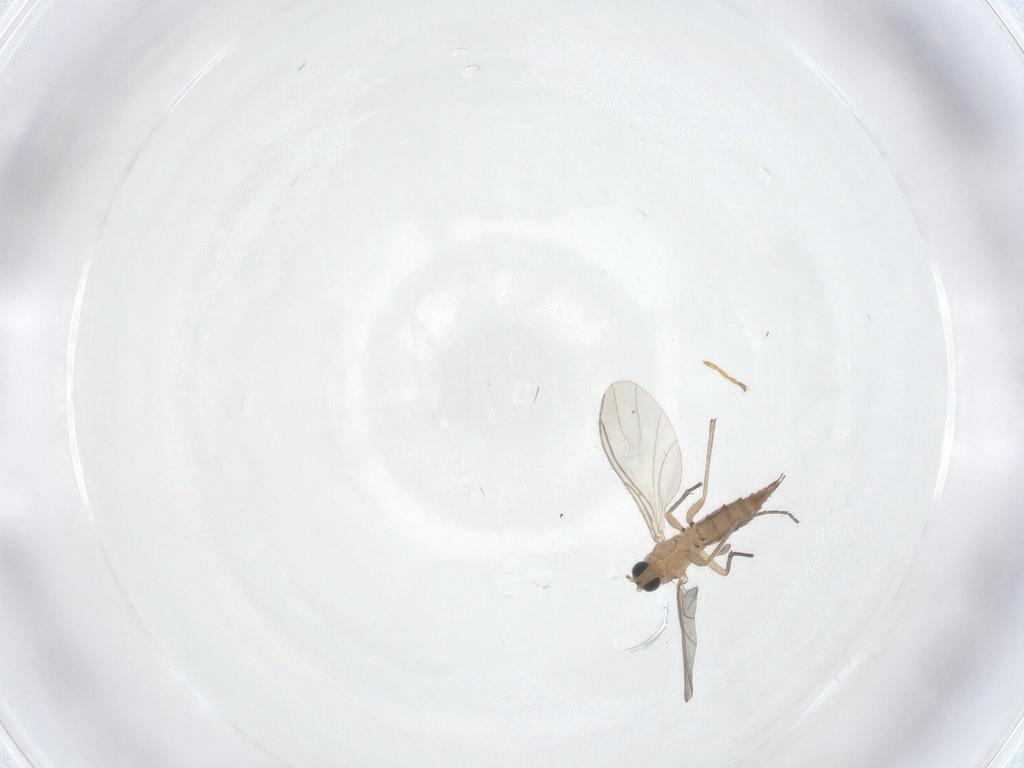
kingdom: Animalia
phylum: Arthropoda
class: Insecta
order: Diptera
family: Sciaridae
